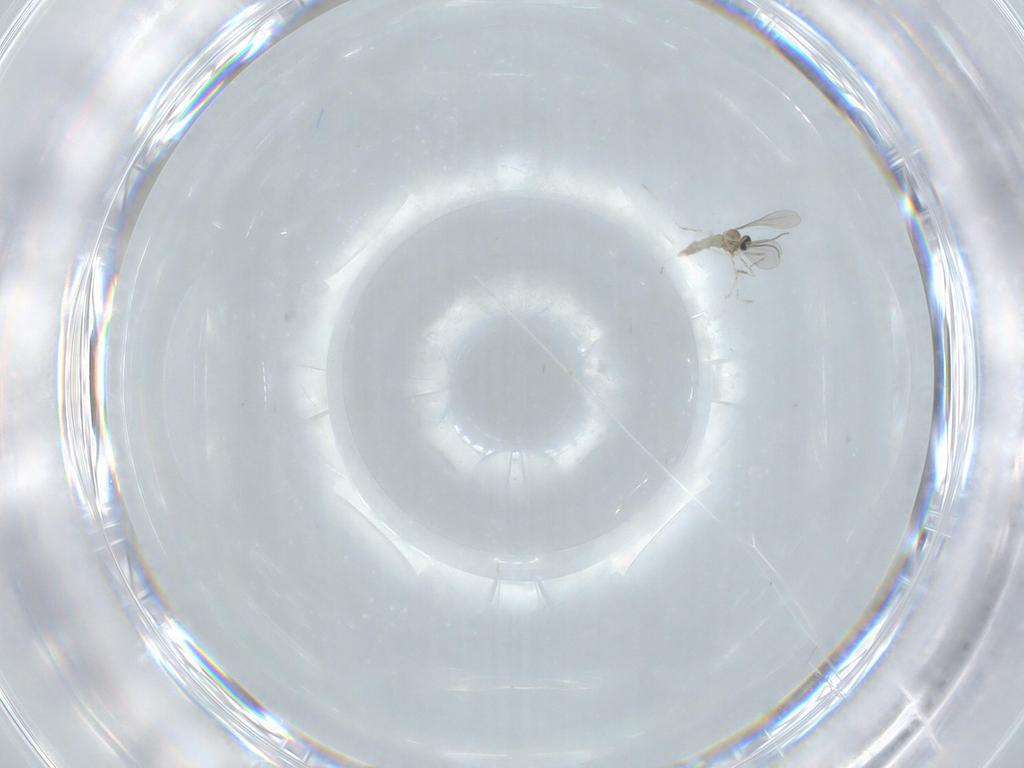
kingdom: Animalia
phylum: Arthropoda
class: Insecta
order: Diptera
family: Cecidomyiidae
